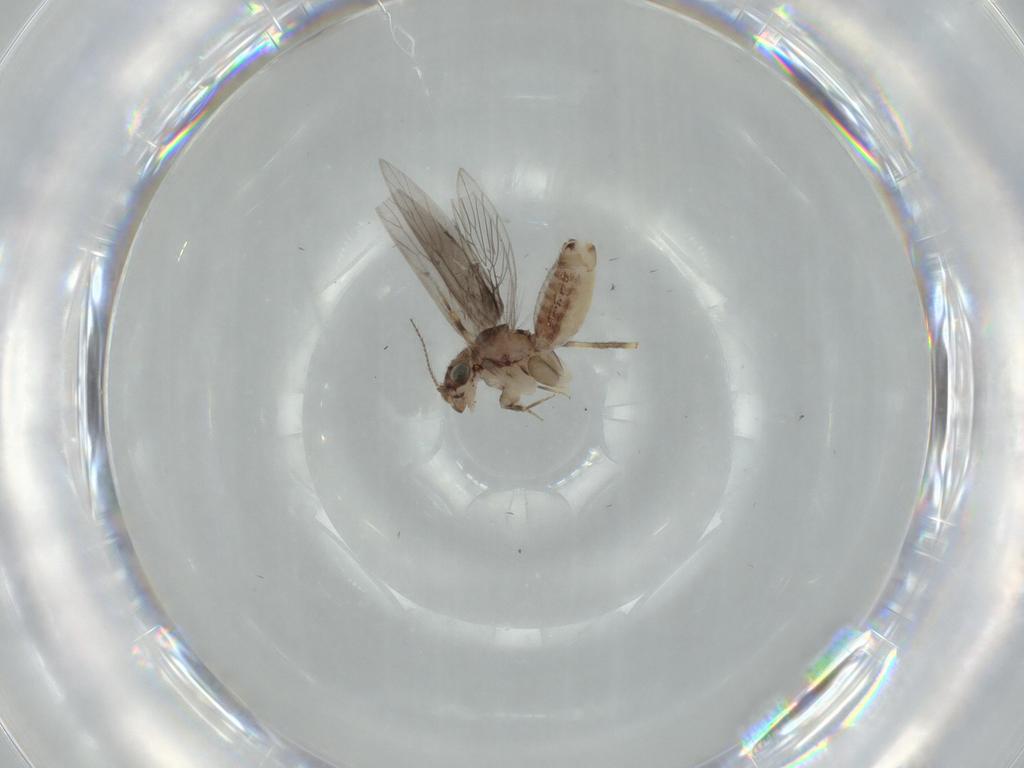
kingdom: Animalia
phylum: Arthropoda
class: Insecta
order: Psocodea
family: Lepidopsocidae
